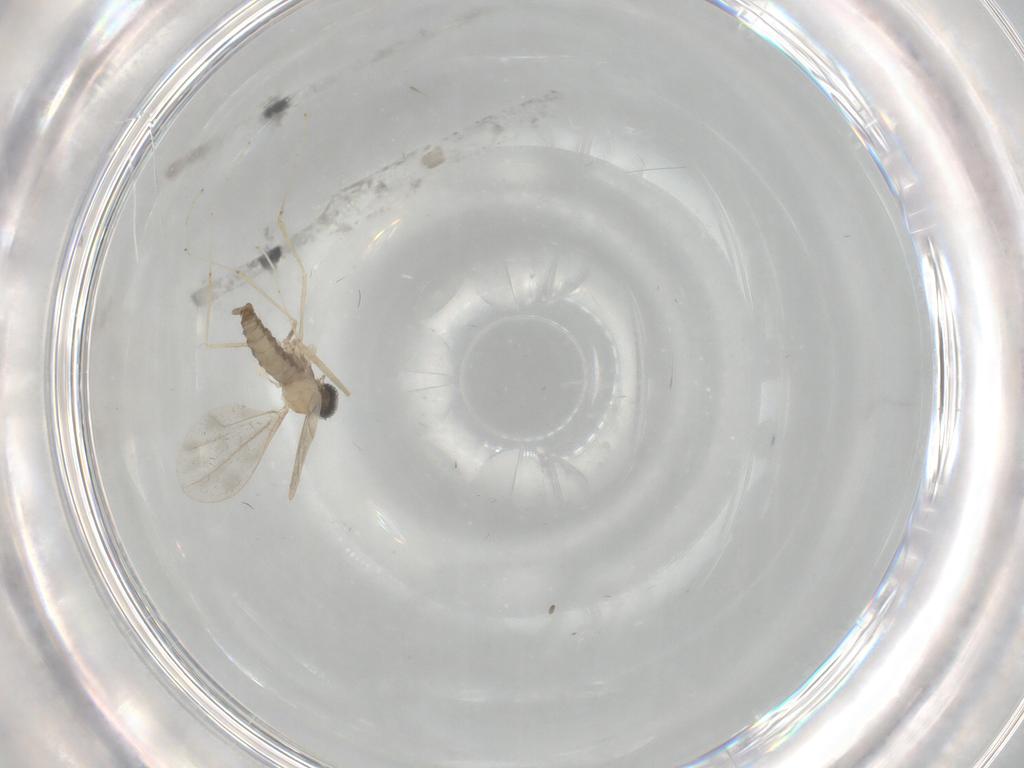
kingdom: Animalia
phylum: Arthropoda
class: Insecta
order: Diptera
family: Cecidomyiidae
